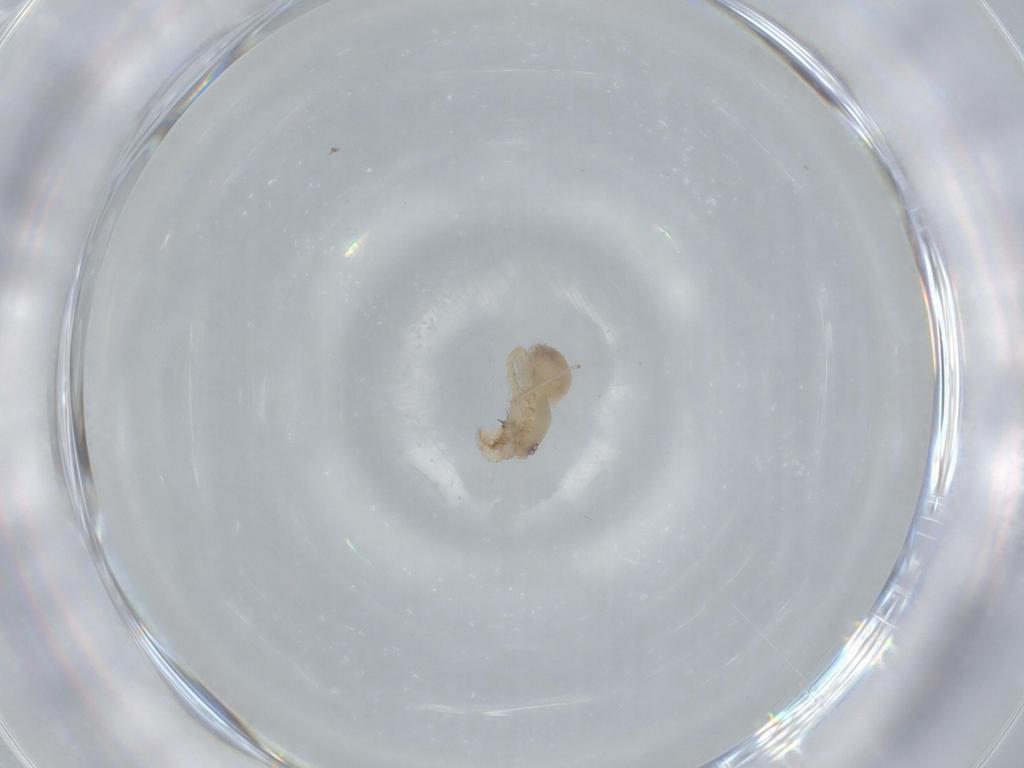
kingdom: Animalia
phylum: Arthropoda
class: Arachnida
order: Araneae
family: Oonopidae
